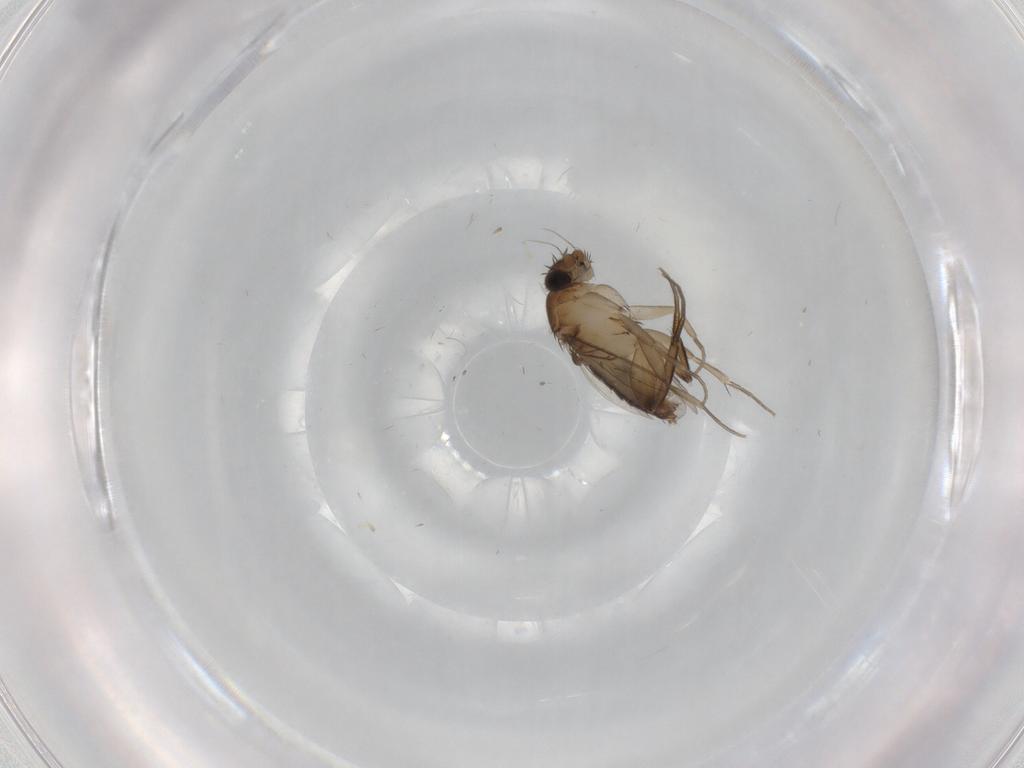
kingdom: Animalia
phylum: Arthropoda
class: Insecta
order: Diptera
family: Phoridae
